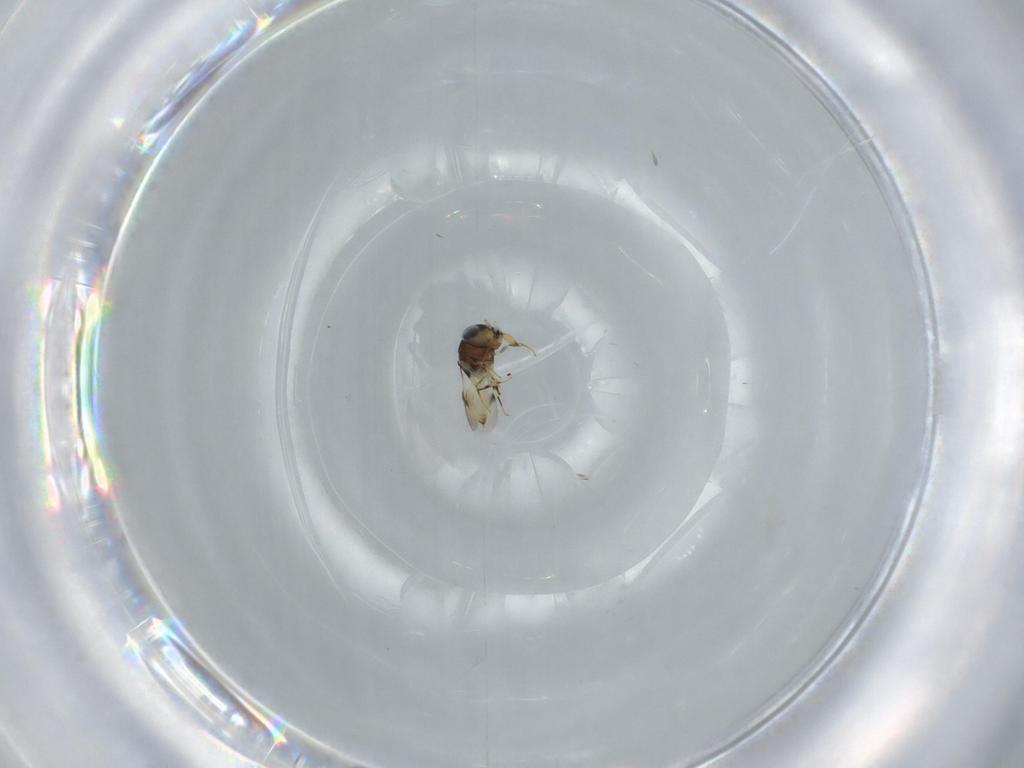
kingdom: Animalia
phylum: Arthropoda
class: Insecta
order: Hymenoptera
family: Scelionidae
